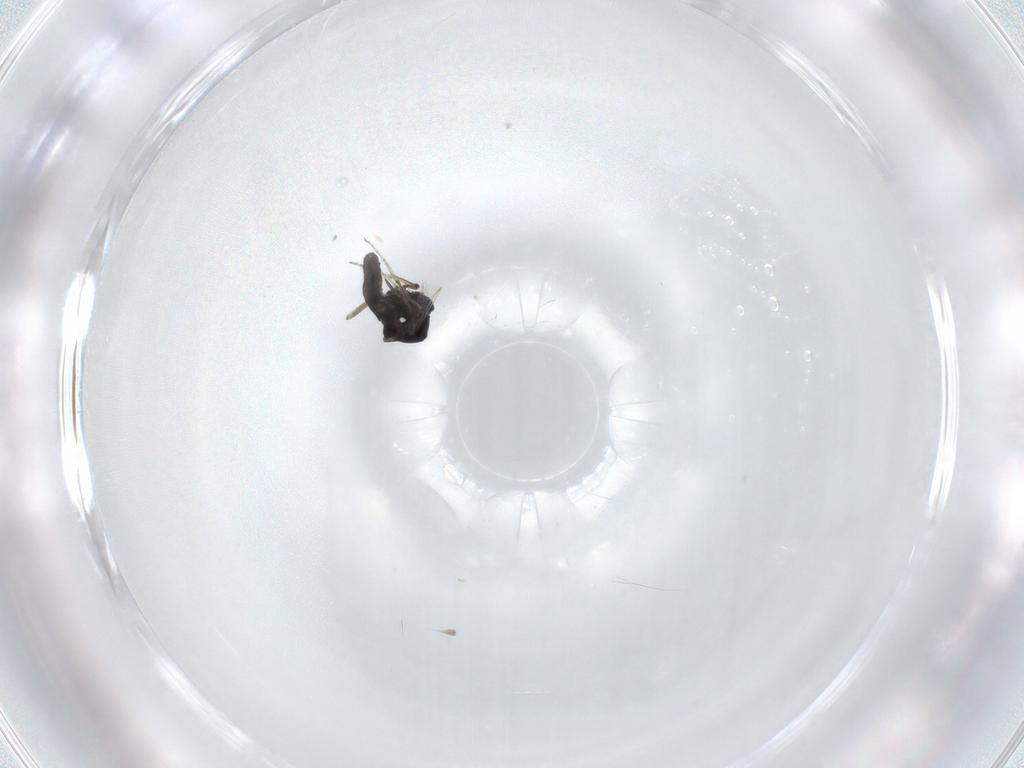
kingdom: Animalia
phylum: Arthropoda
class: Insecta
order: Diptera
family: Ceratopogonidae
